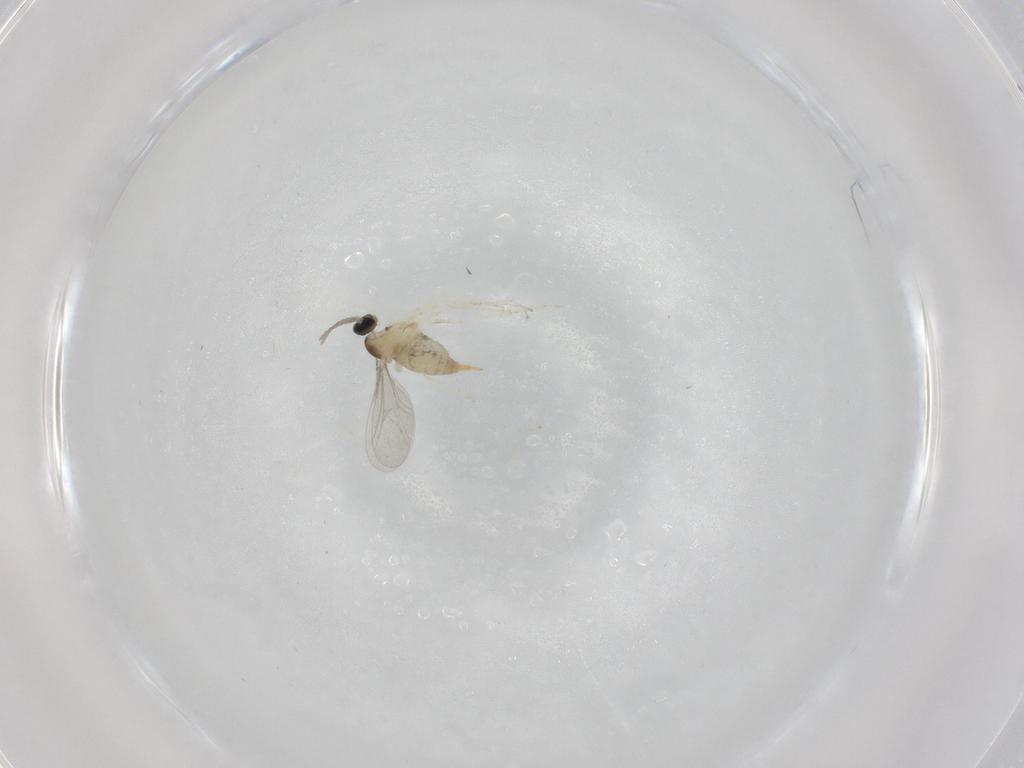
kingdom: Animalia
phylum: Arthropoda
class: Insecta
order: Diptera
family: Cecidomyiidae
